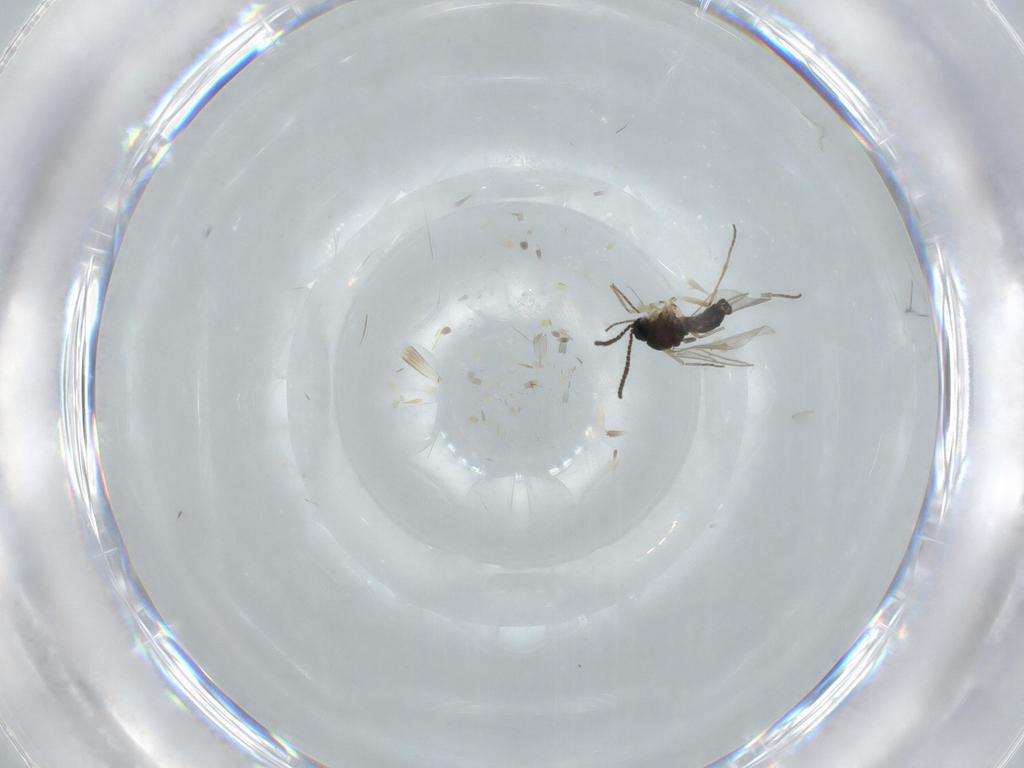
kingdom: Animalia
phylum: Arthropoda
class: Insecta
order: Diptera
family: Sciaridae
